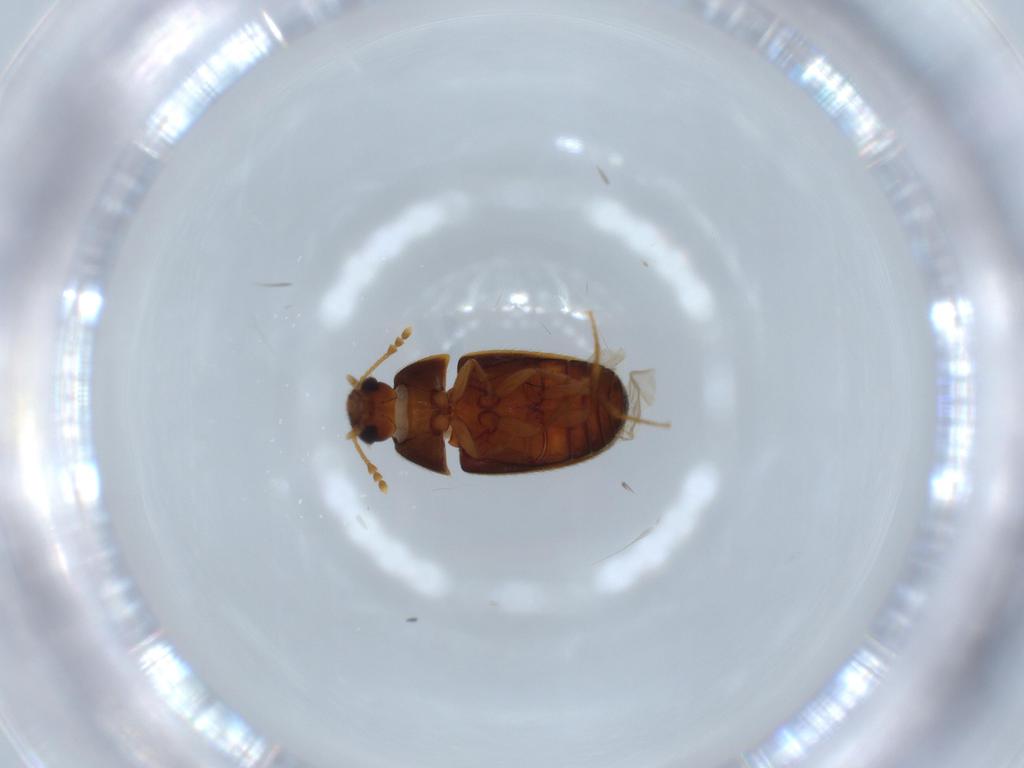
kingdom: Animalia
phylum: Arthropoda
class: Insecta
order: Coleoptera
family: Mycetophagidae
